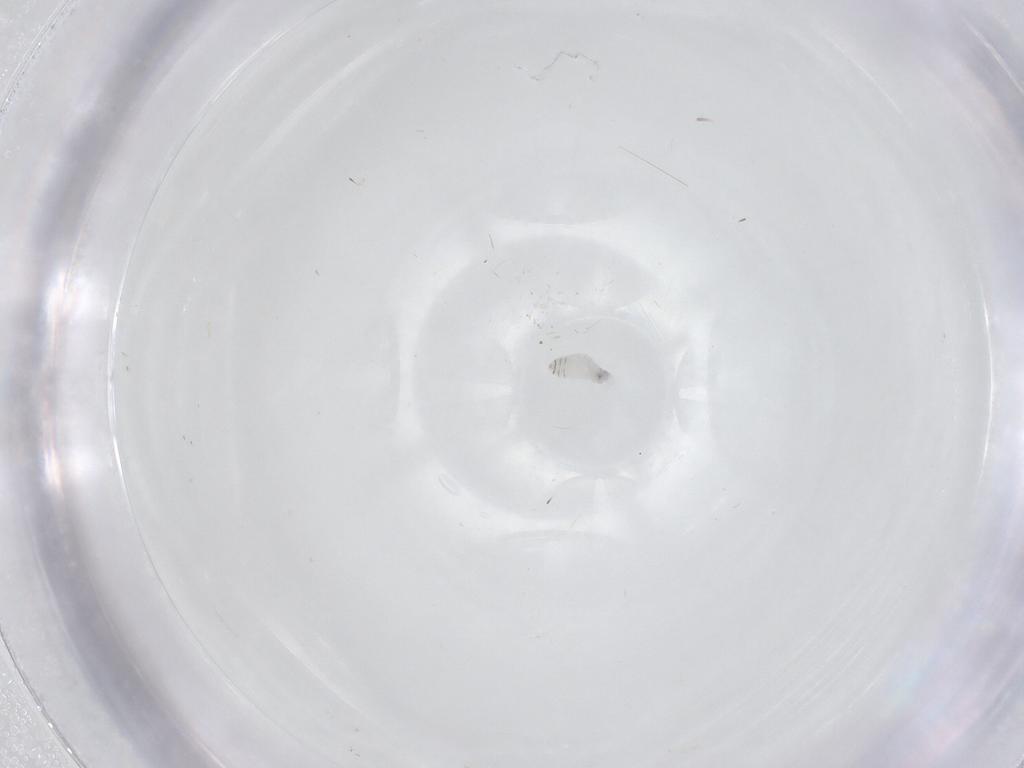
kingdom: Animalia
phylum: Arthropoda
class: Insecta
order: Diptera
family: Tachinidae
